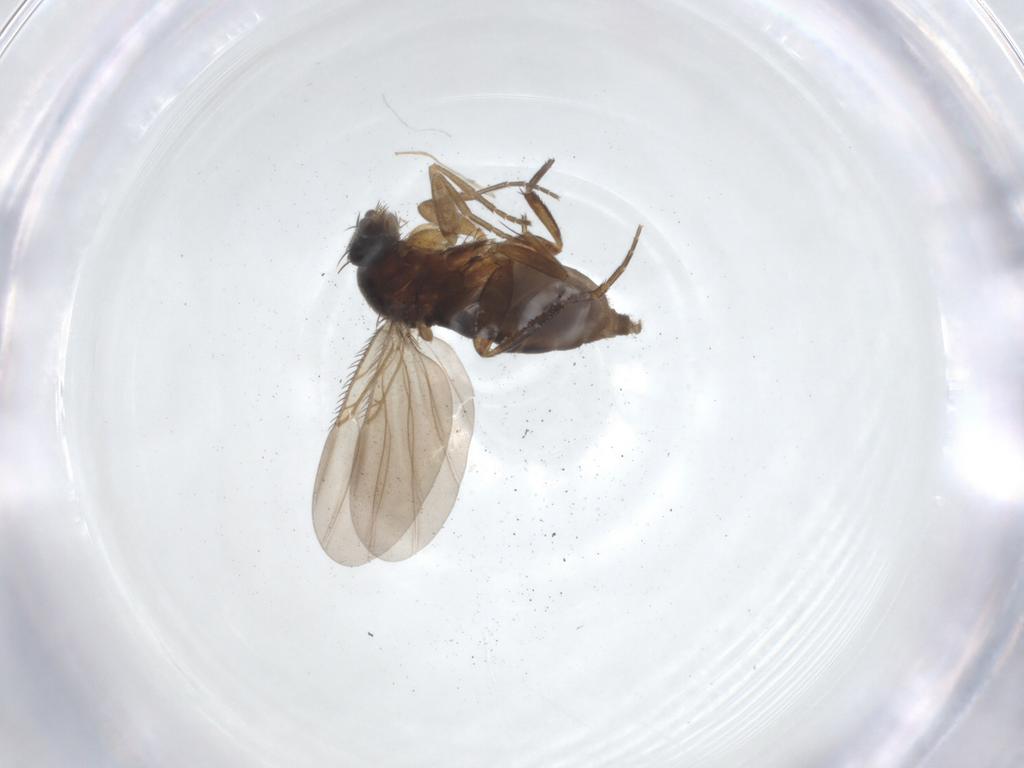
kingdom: Animalia
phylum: Arthropoda
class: Insecta
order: Diptera
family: Phoridae
